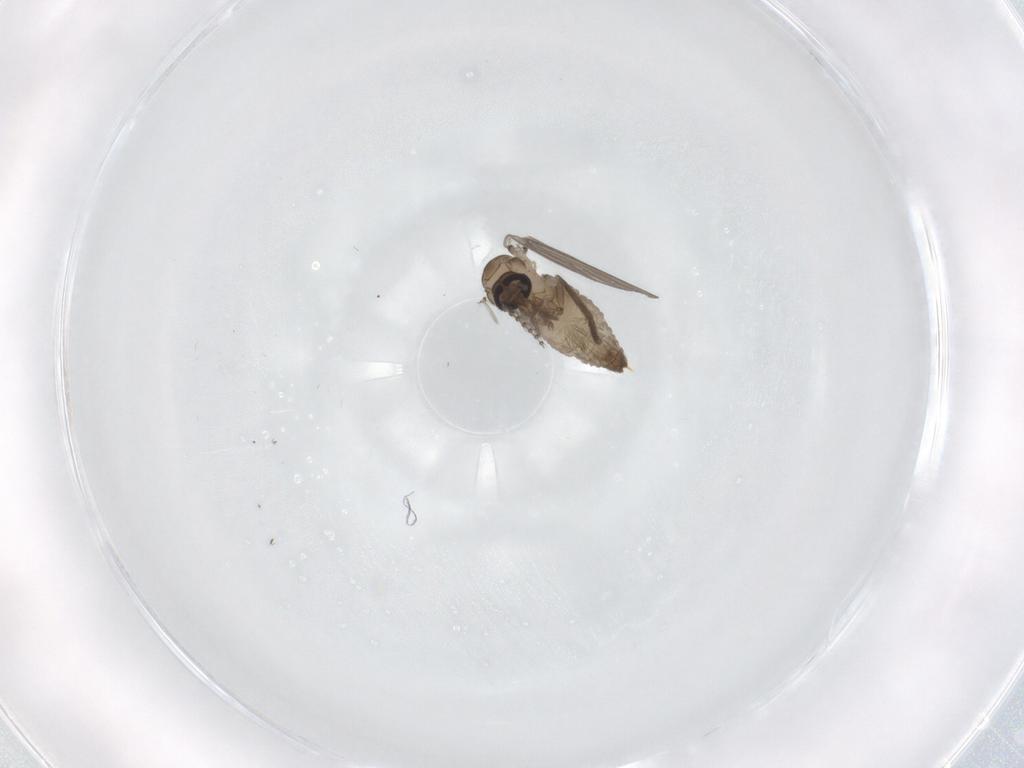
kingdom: Animalia
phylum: Arthropoda
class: Insecta
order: Diptera
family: Psychodidae
